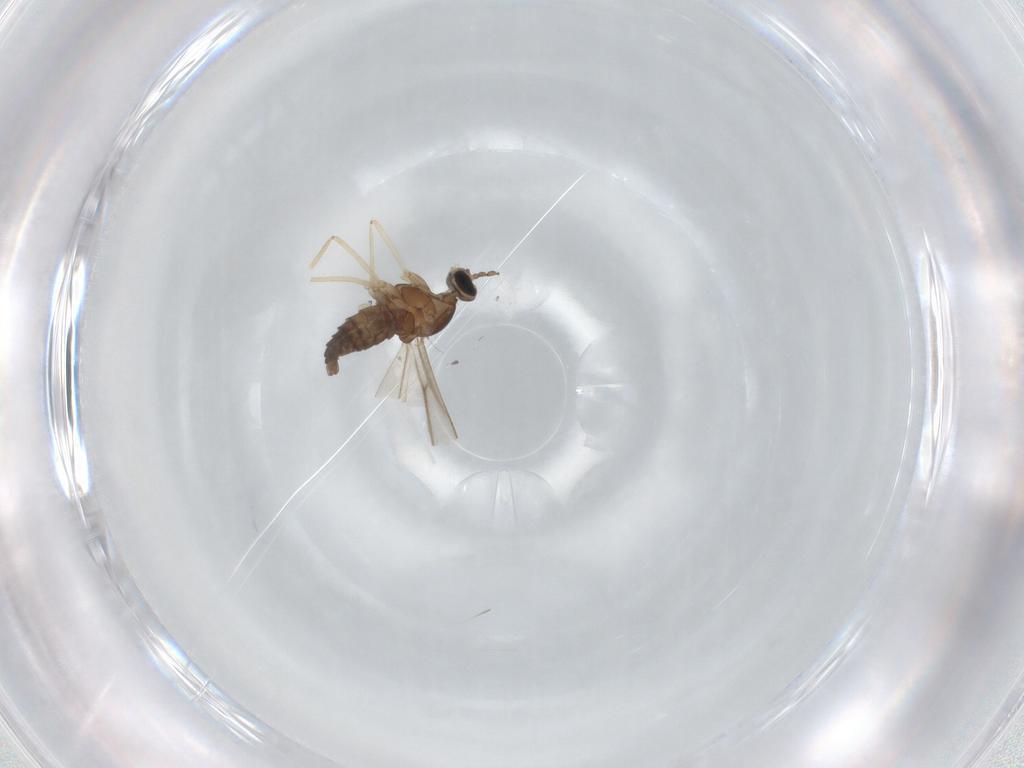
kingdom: Animalia
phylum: Arthropoda
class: Insecta
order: Diptera
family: Cecidomyiidae
